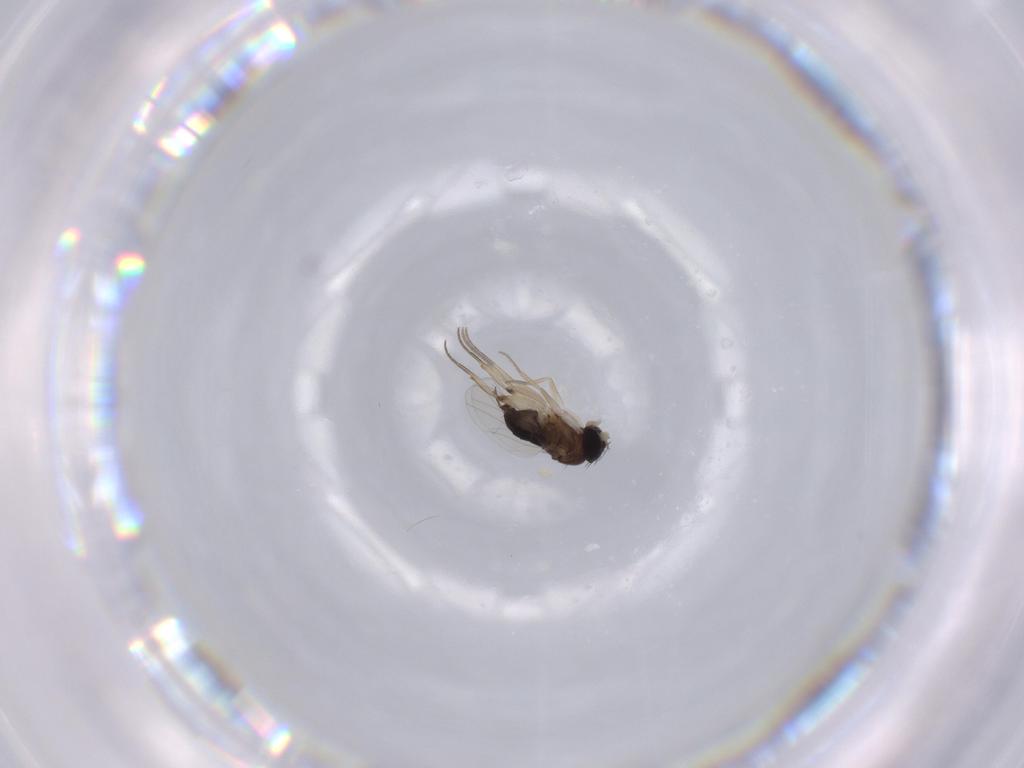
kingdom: Animalia
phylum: Arthropoda
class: Insecta
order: Diptera
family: Phoridae
